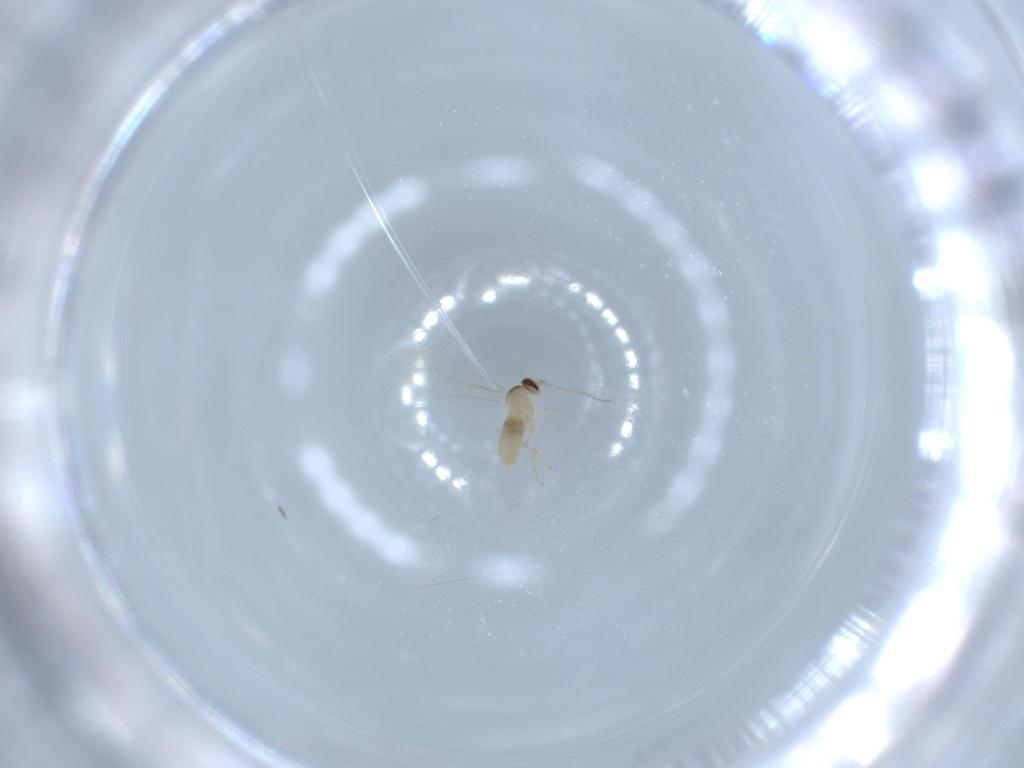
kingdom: Animalia
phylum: Arthropoda
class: Insecta
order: Diptera
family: Cecidomyiidae
